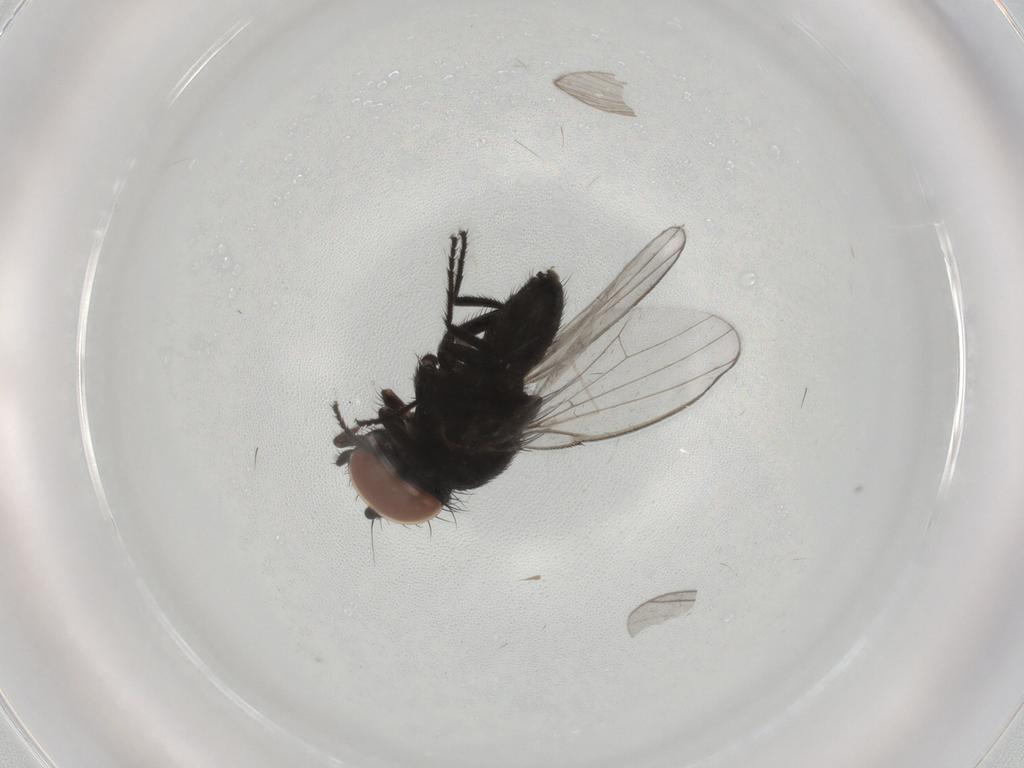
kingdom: Animalia
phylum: Arthropoda
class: Insecta
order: Diptera
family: Milichiidae
